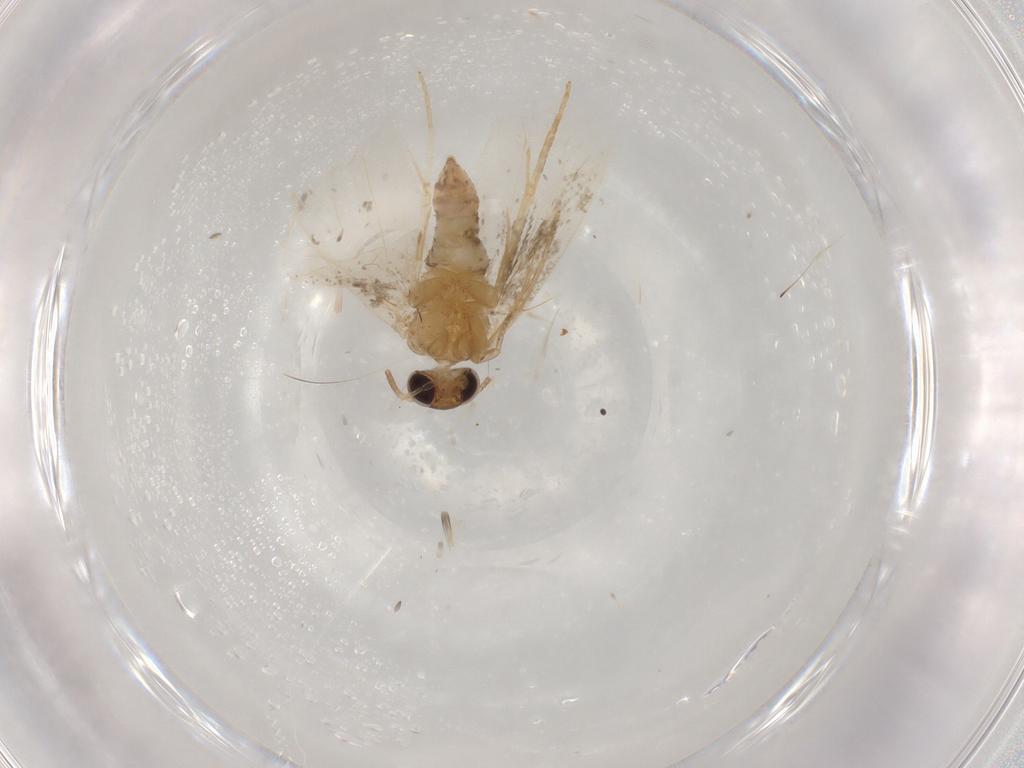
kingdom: Animalia
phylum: Arthropoda
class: Insecta
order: Lepidoptera
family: Tortricidae
